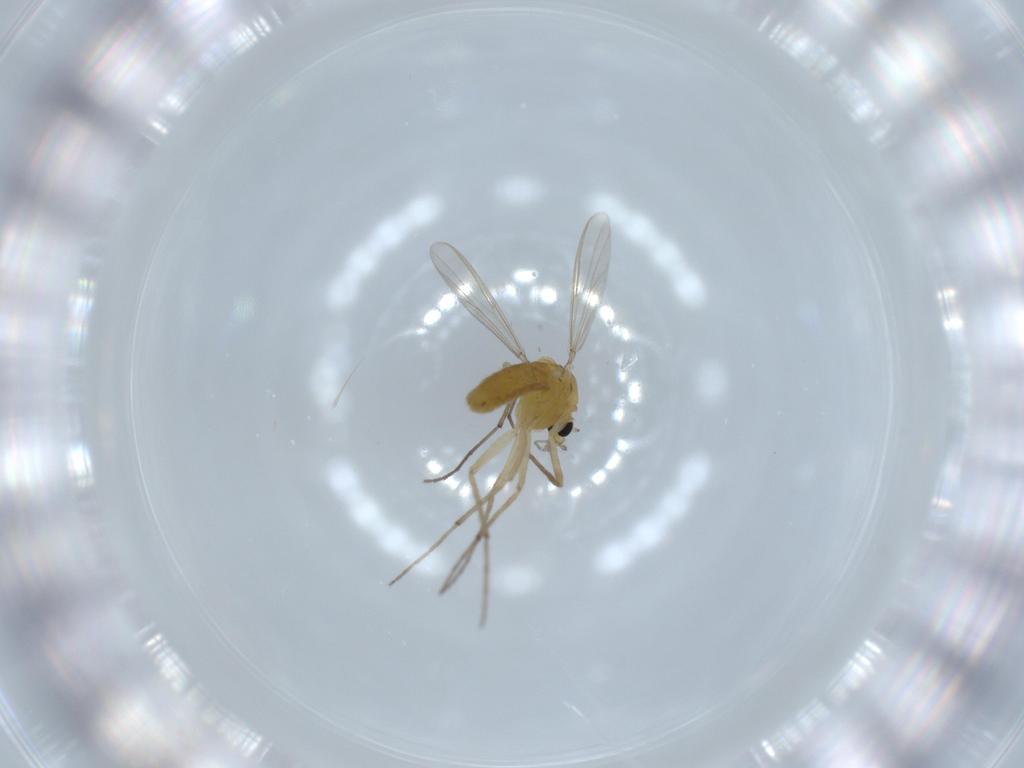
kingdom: Animalia
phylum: Arthropoda
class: Insecta
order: Diptera
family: Chironomidae
